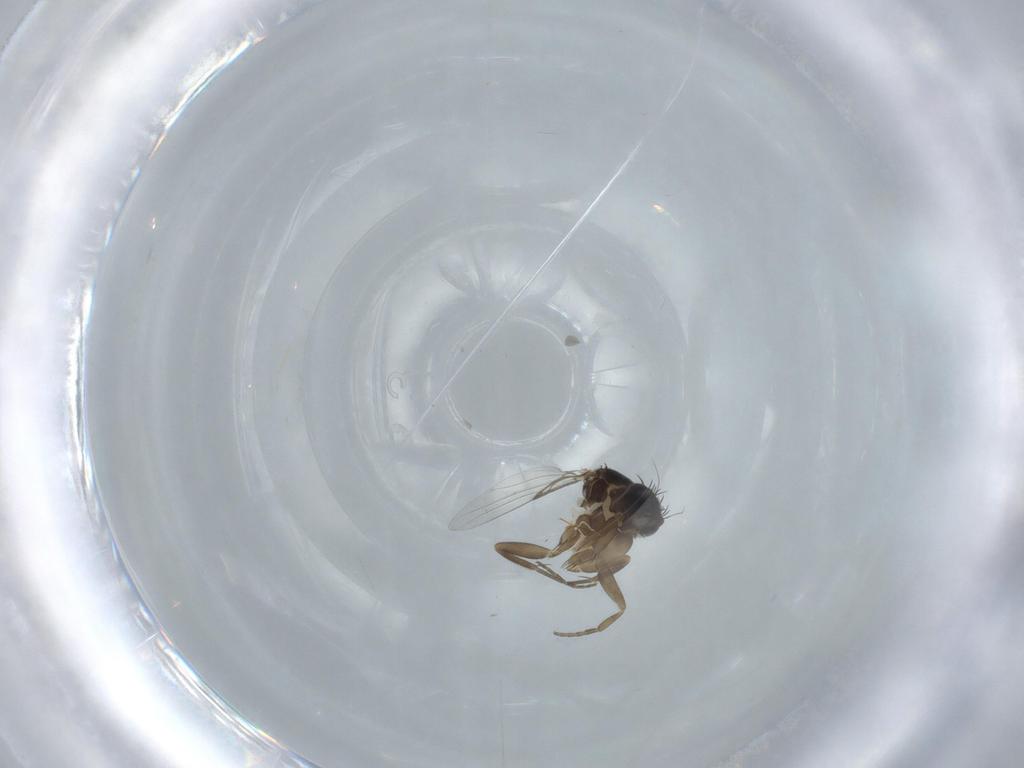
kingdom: Animalia
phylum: Arthropoda
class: Insecta
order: Diptera
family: Phoridae
